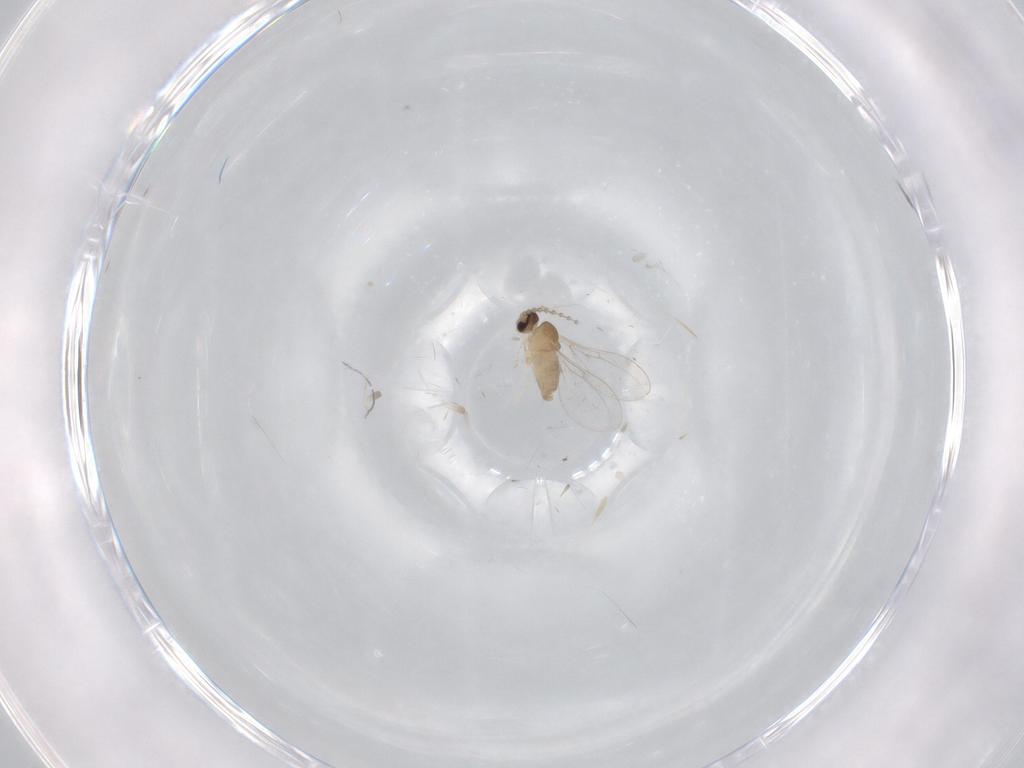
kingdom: Animalia
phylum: Arthropoda
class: Insecta
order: Diptera
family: Cecidomyiidae
